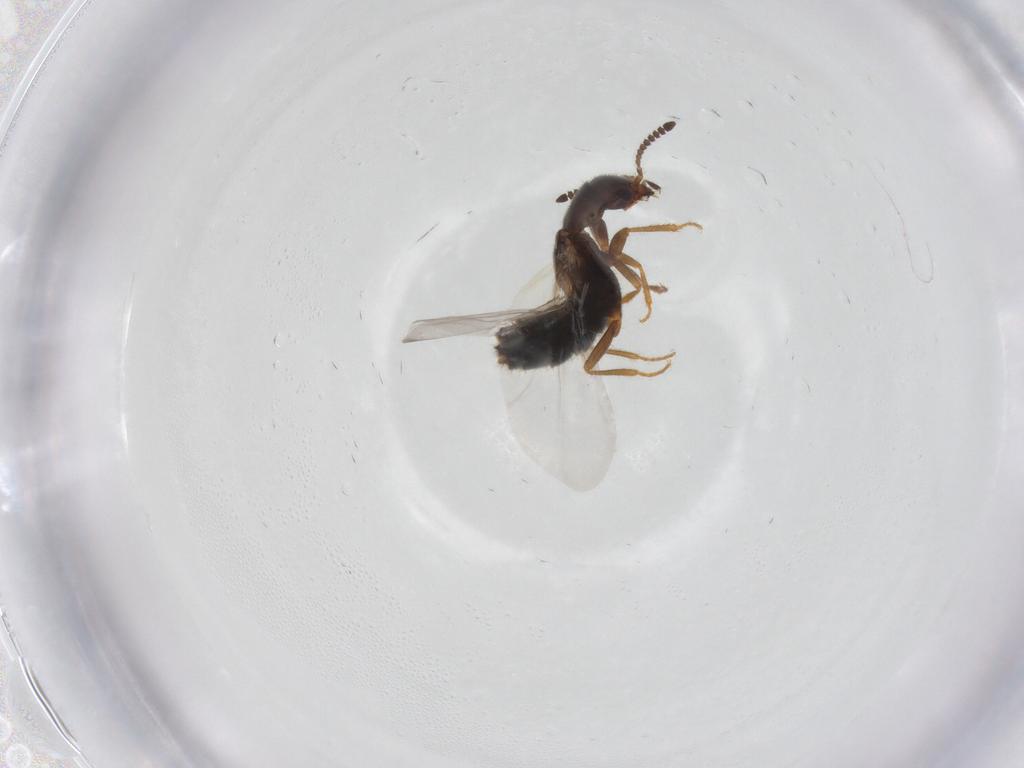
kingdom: Animalia
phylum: Arthropoda
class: Insecta
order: Coleoptera
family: Staphylinidae
